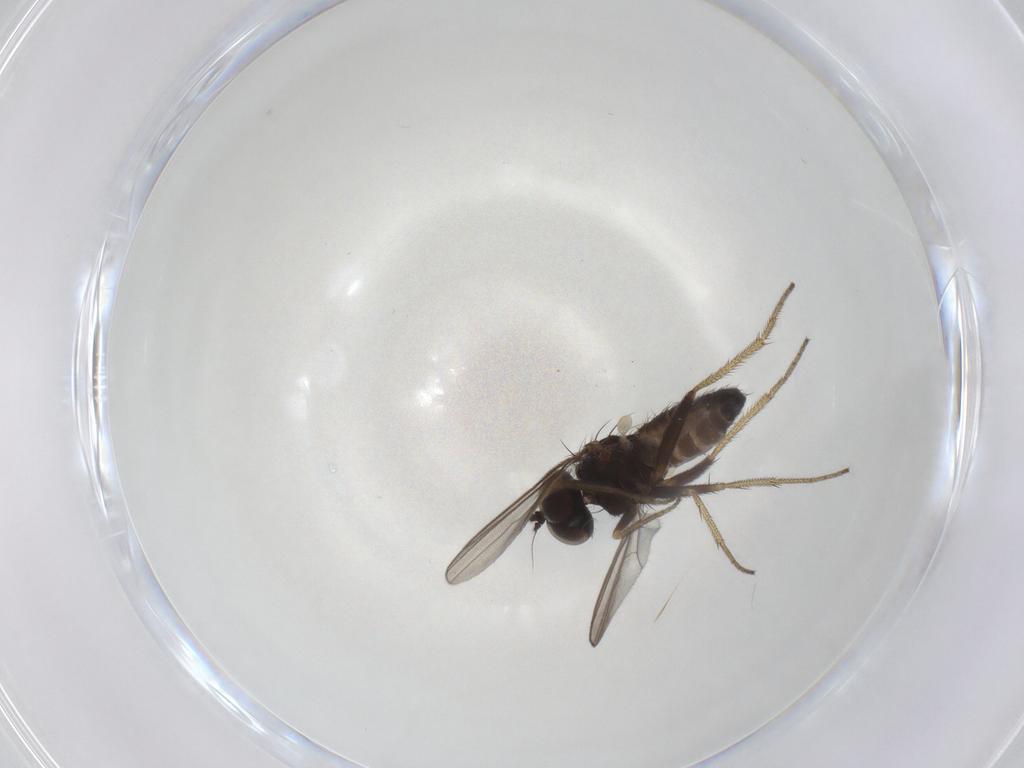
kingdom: Animalia
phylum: Arthropoda
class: Insecta
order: Diptera
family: Dolichopodidae
